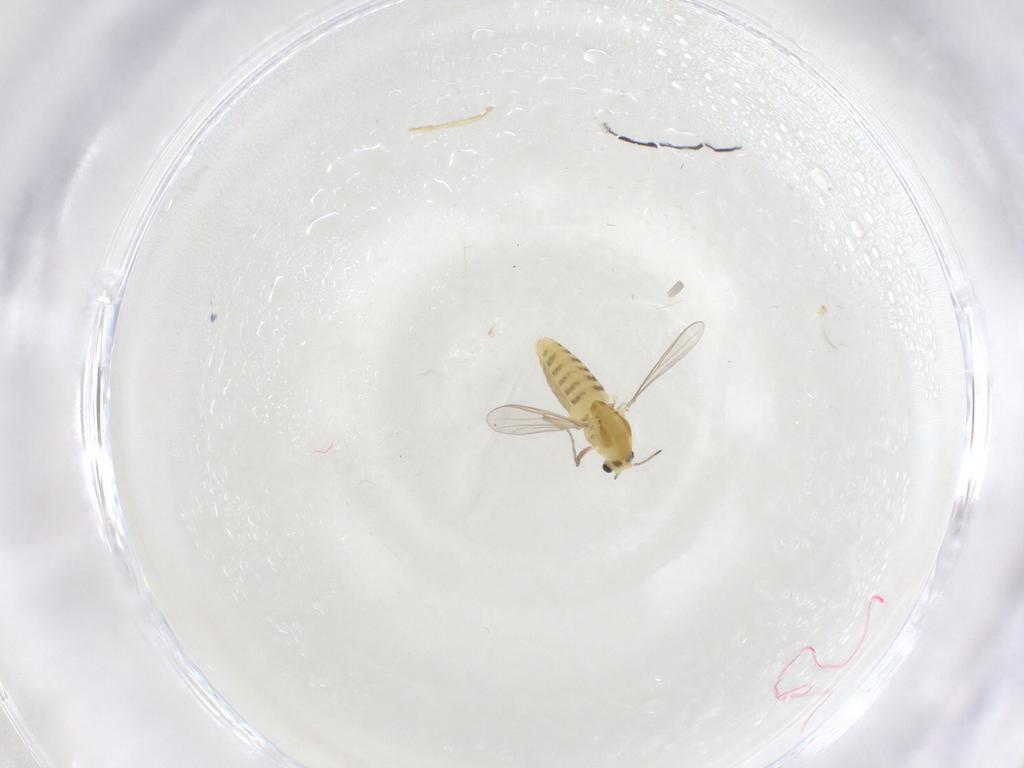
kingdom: Animalia
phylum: Arthropoda
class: Insecta
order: Diptera
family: Chironomidae
